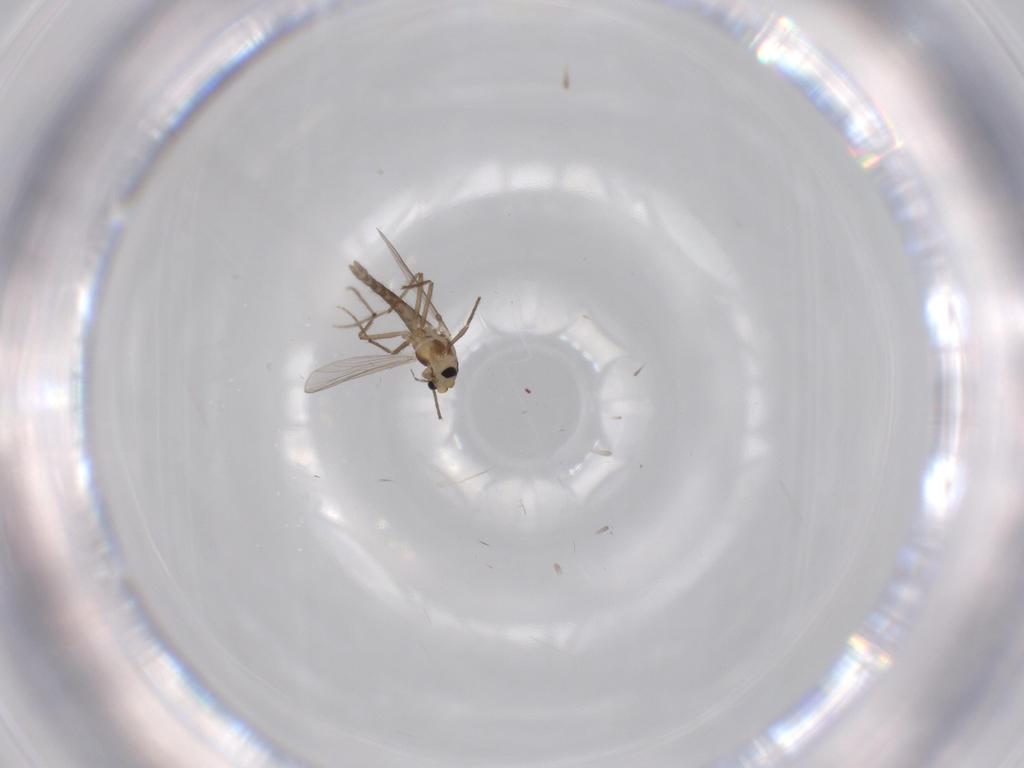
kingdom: Animalia
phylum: Arthropoda
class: Insecta
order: Diptera
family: Chironomidae
